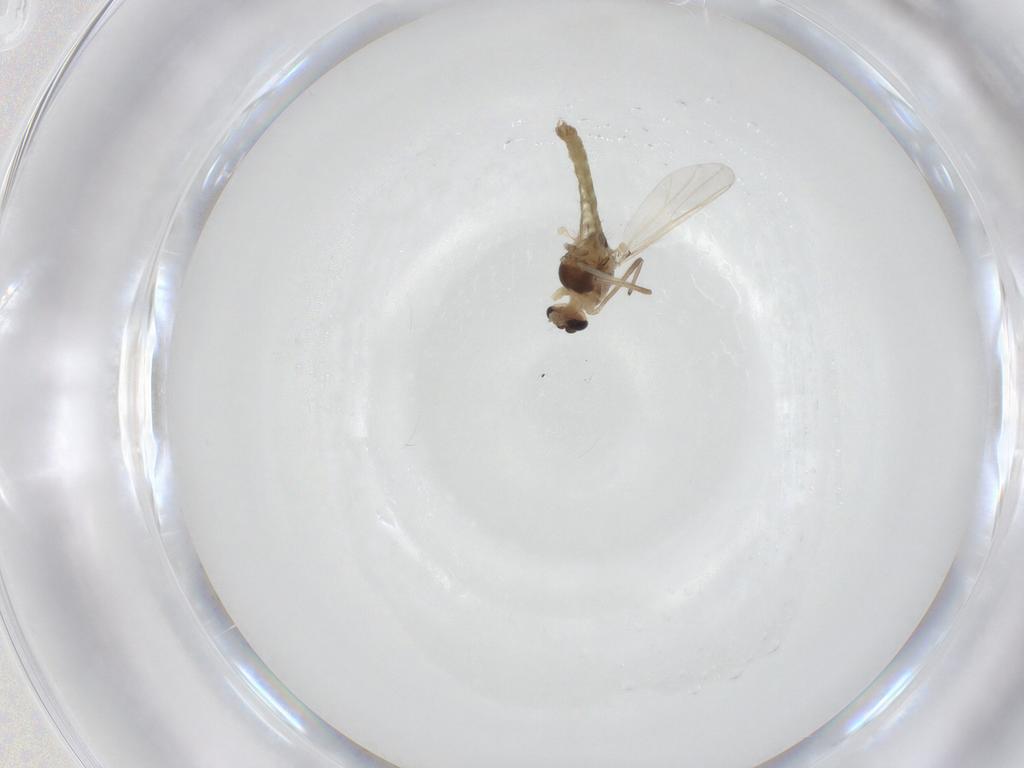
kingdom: Animalia
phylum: Arthropoda
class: Insecta
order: Diptera
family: Chironomidae
